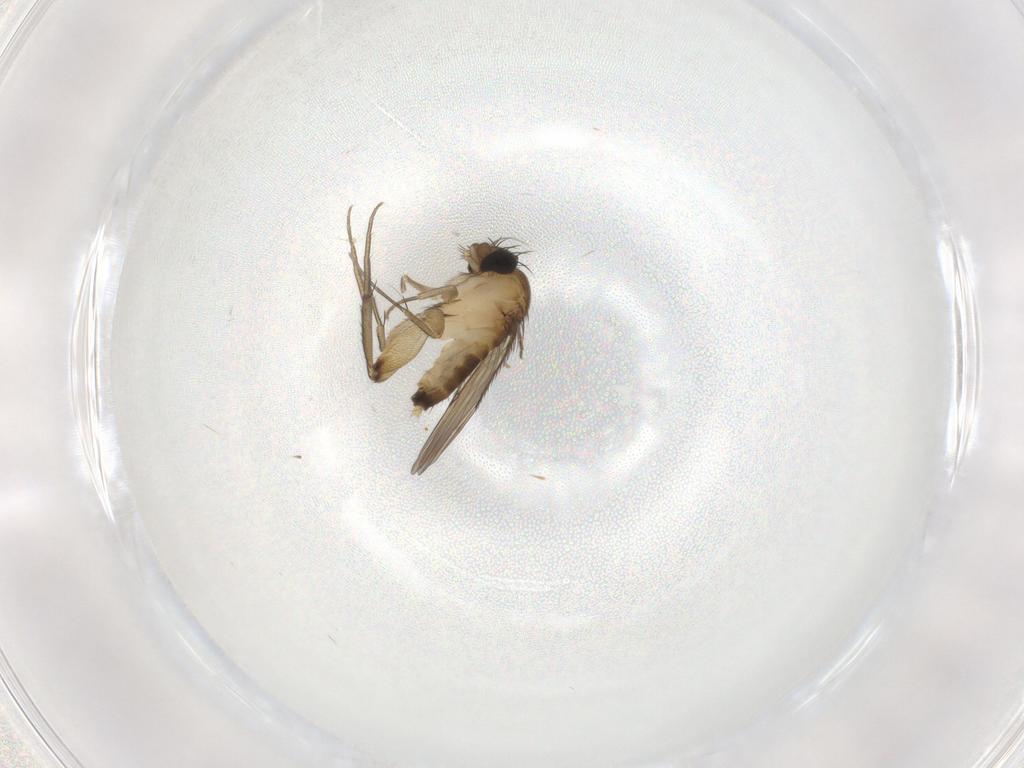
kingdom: Animalia
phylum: Arthropoda
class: Insecta
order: Diptera
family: Phoridae
